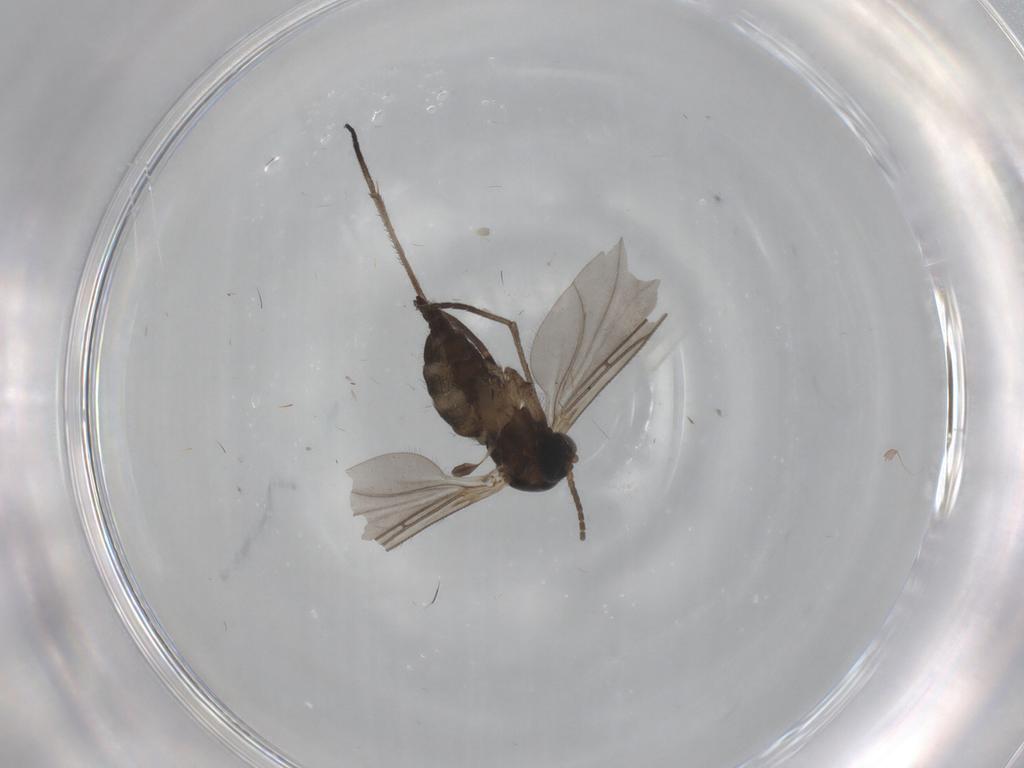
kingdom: Animalia
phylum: Arthropoda
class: Insecta
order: Diptera
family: Sciaridae
